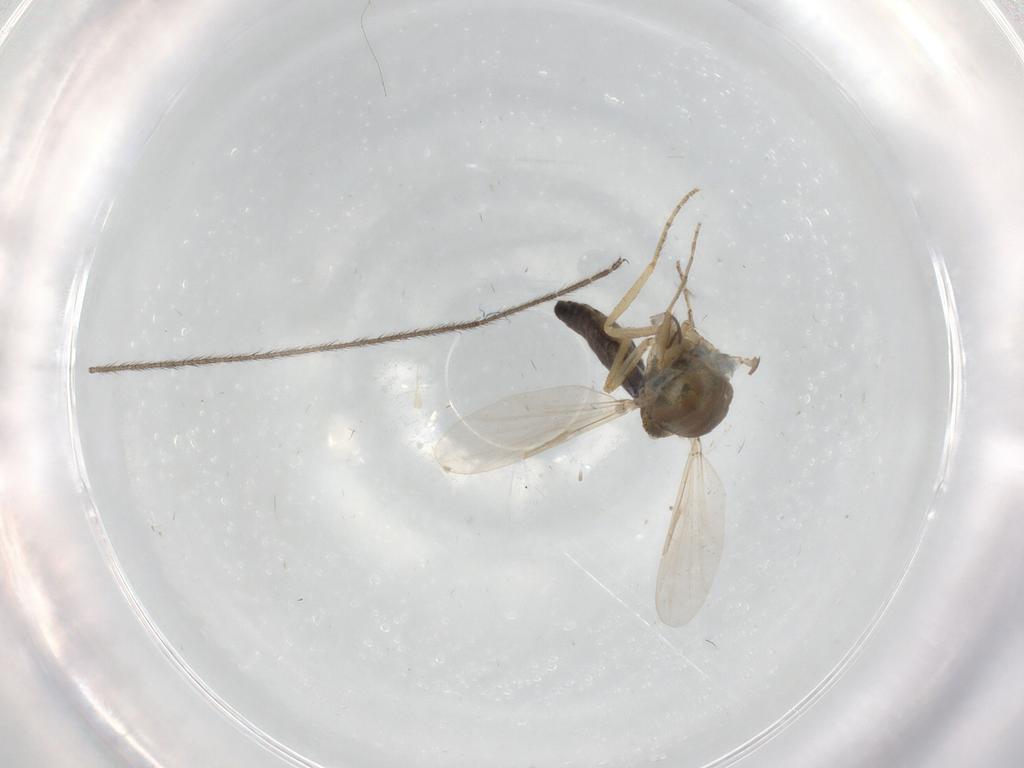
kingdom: Animalia
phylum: Arthropoda
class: Insecta
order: Diptera
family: Ceratopogonidae
